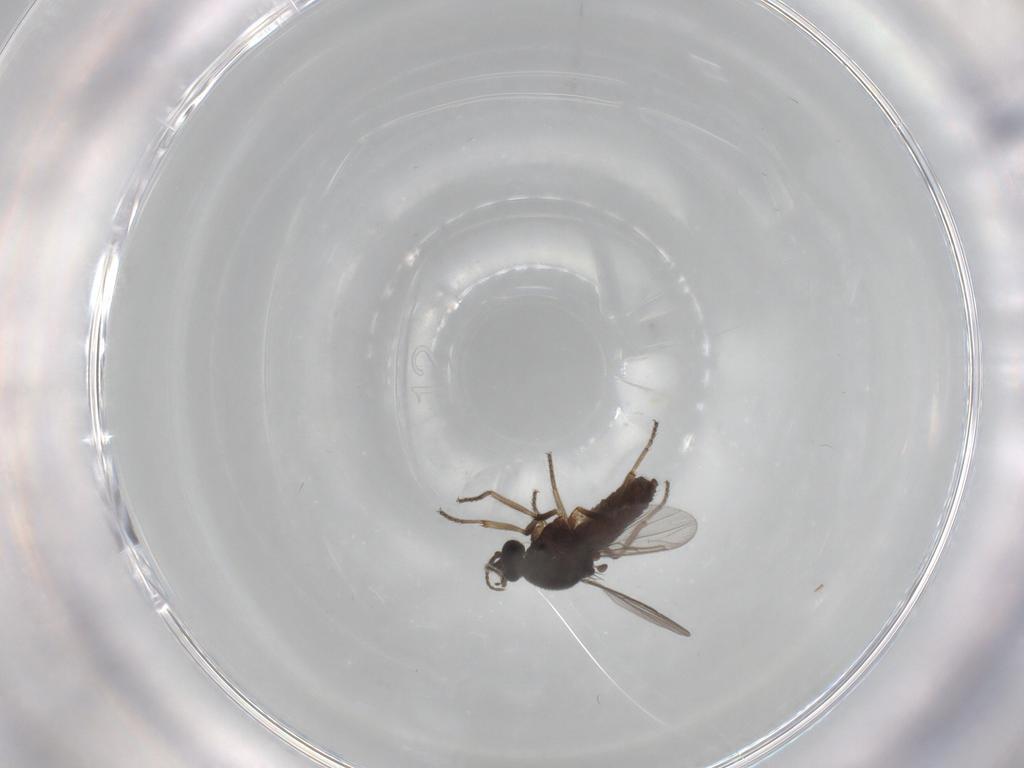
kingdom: Animalia
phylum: Arthropoda
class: Insecta
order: Diptera
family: Ceratopogonidae
